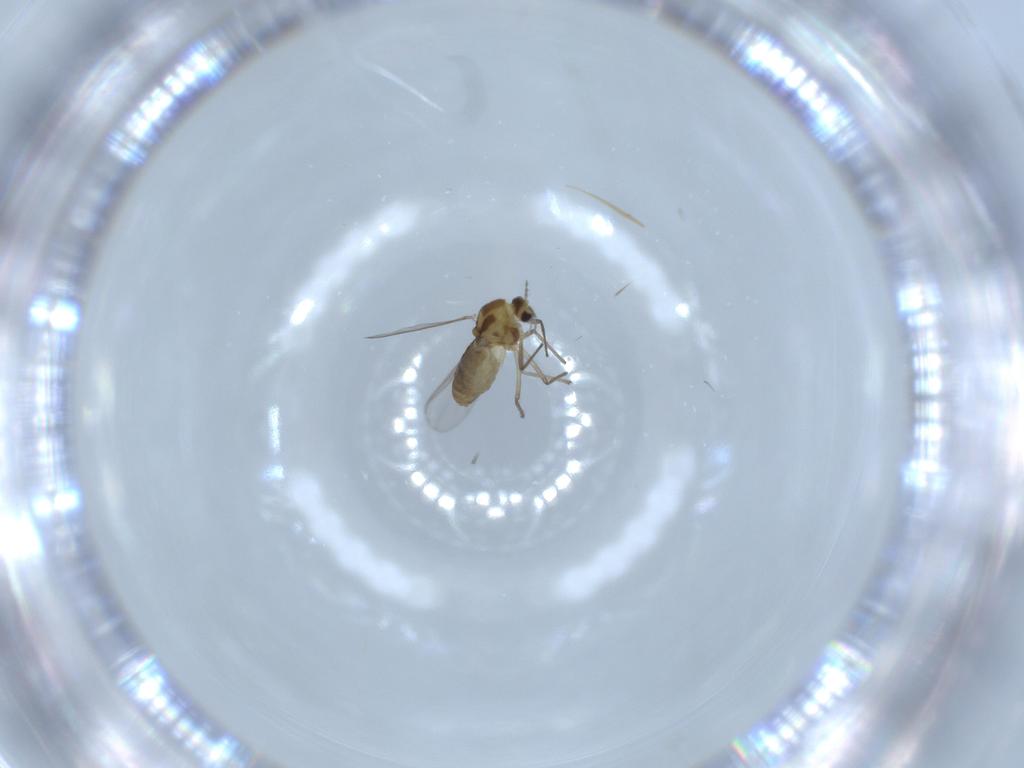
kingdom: Animalia
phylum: Arthropoda
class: Insecta
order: Diptera
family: Chironomidae
